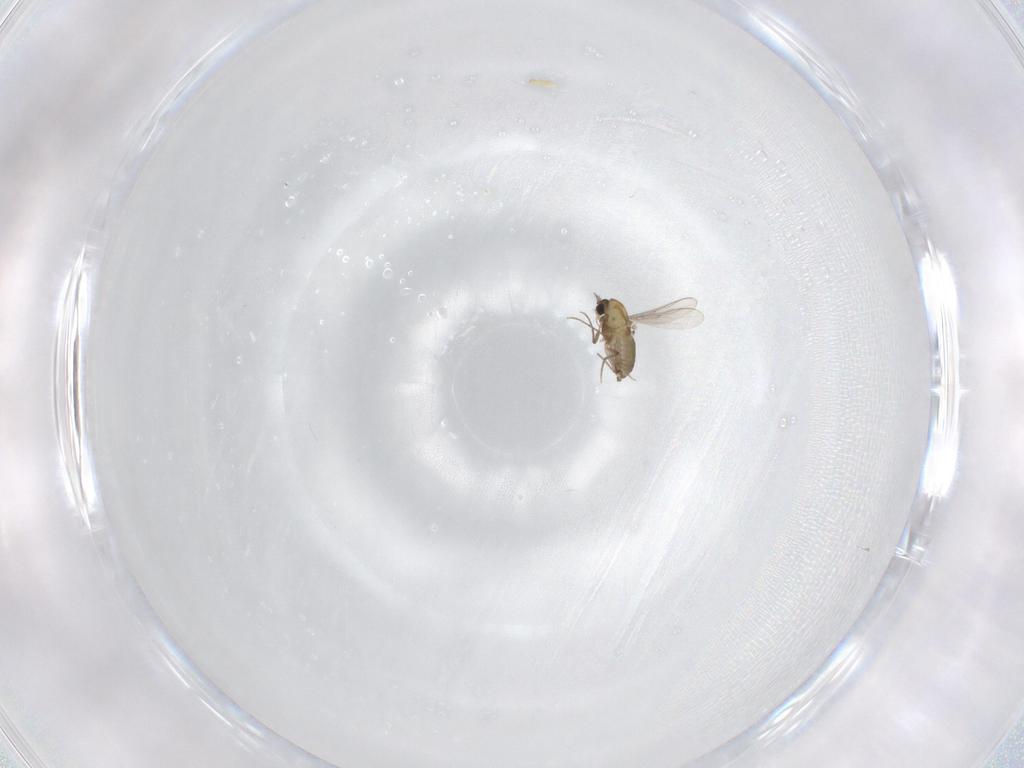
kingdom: Animalia
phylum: Arthropoda
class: Insecta
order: Diptera
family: Chironomidae
